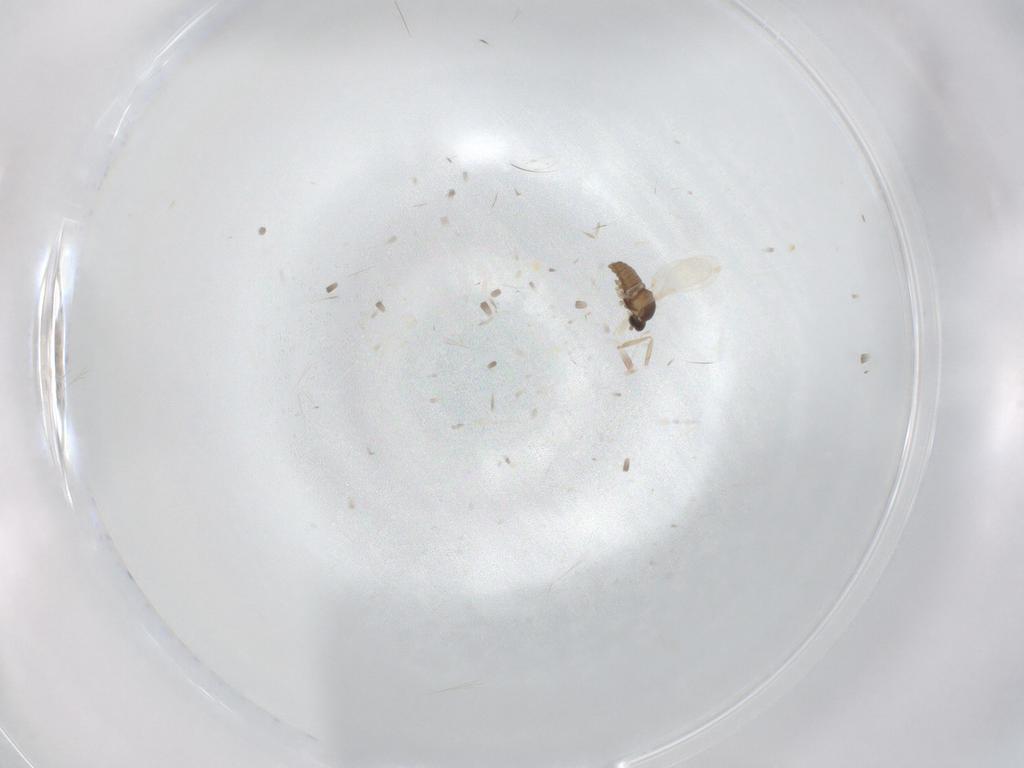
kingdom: Animalia
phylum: Arthropoda
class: Insecta
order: Diptera
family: Cecidomyiidae
